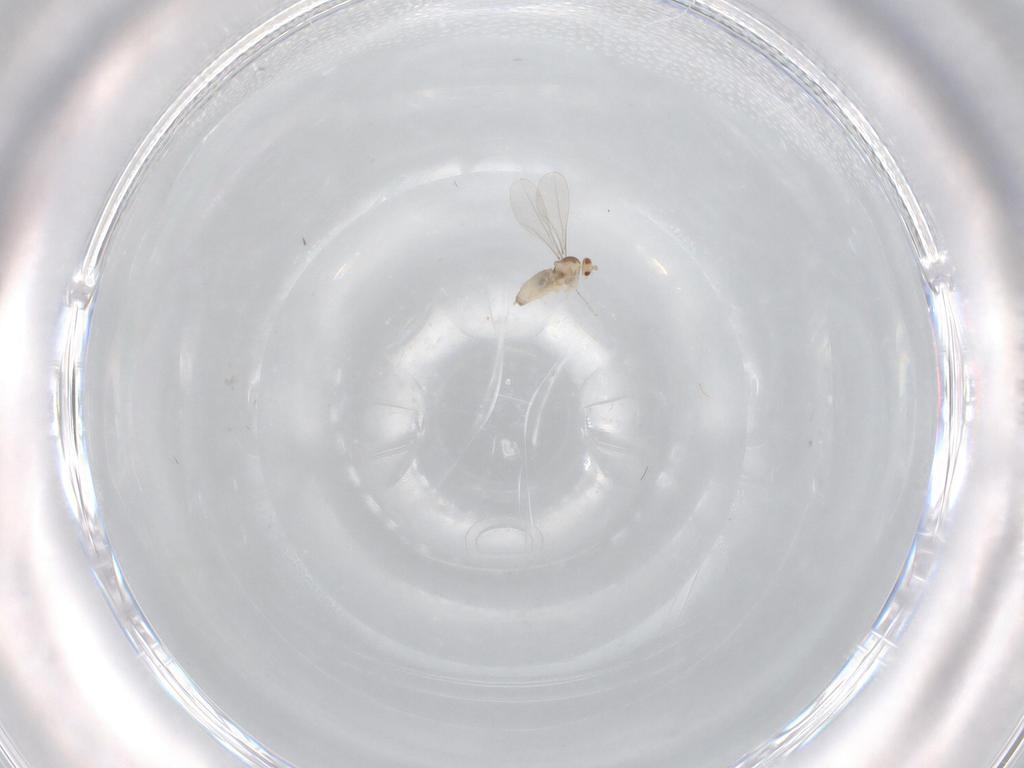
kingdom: Animalia
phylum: Arthropoda
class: Insecta
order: Diptera
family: Cecidomyiidae
